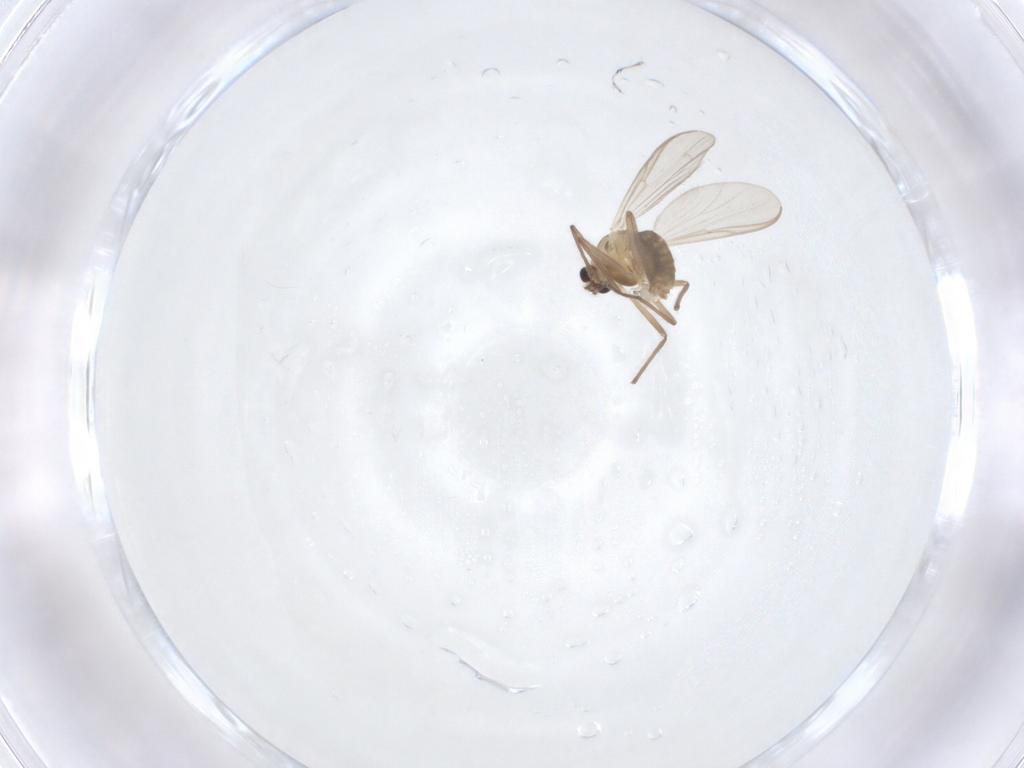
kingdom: Animalia
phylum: Arthropoda
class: Insecta
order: Diptera
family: Chironomidae
